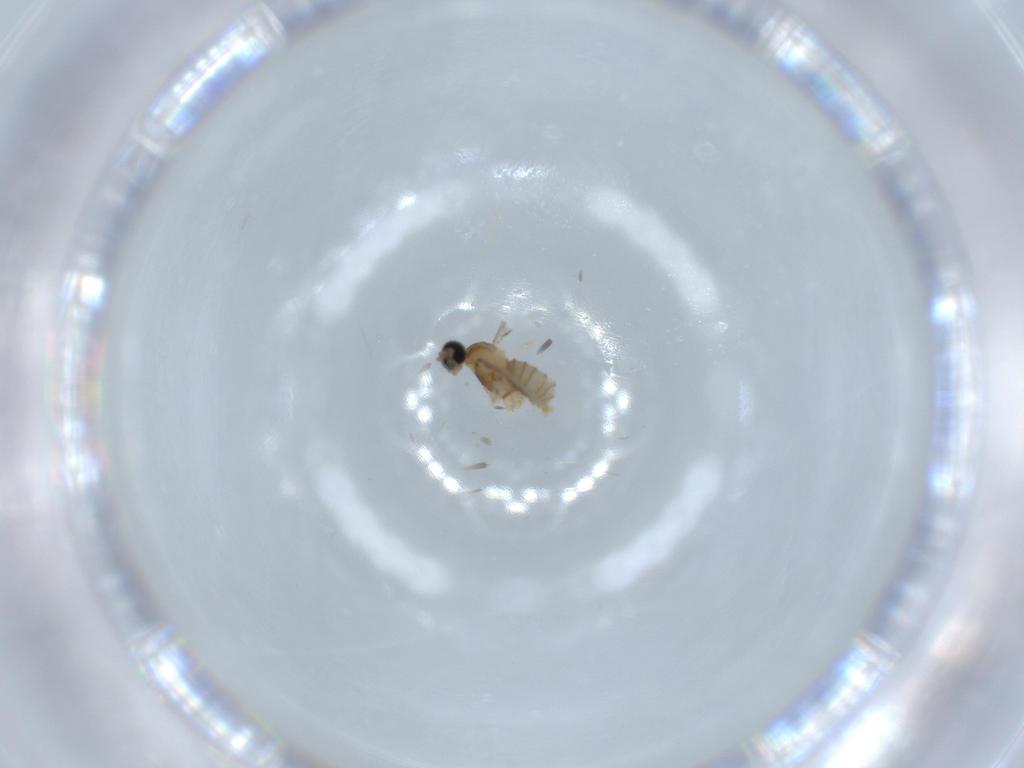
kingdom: Animalia
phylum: Arthropoda
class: Insecta
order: Diptera
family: Cecidomyiidae
